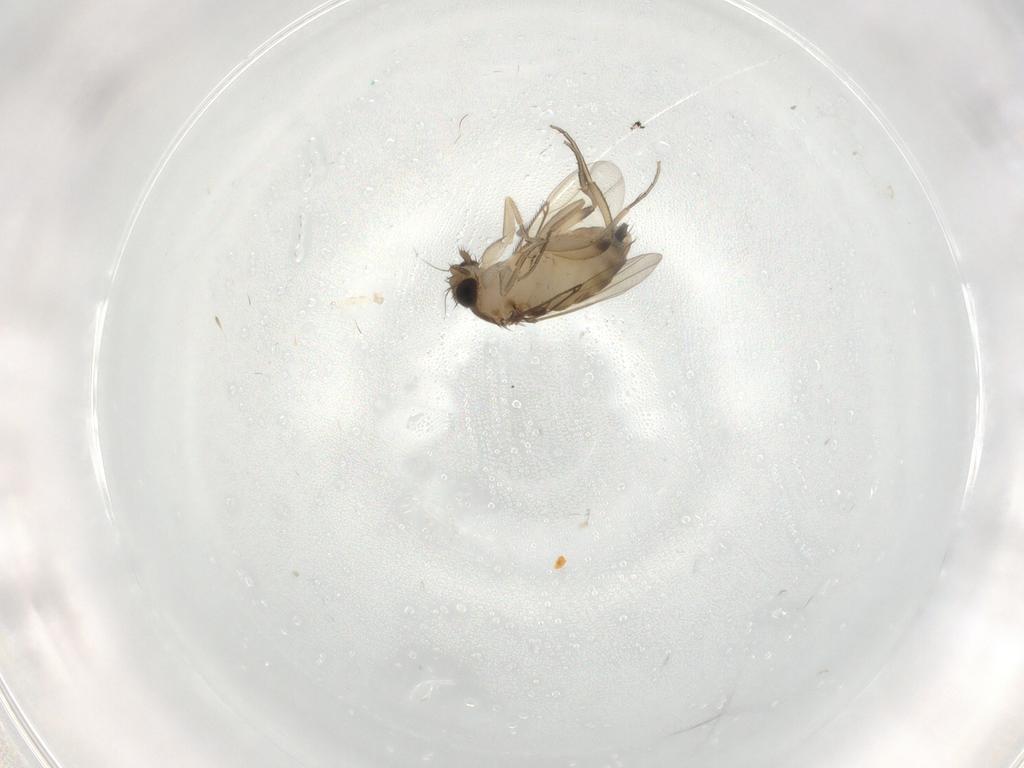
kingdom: Animalia
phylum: Arthropoda
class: Insecta
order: Diptera
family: Phoridae
